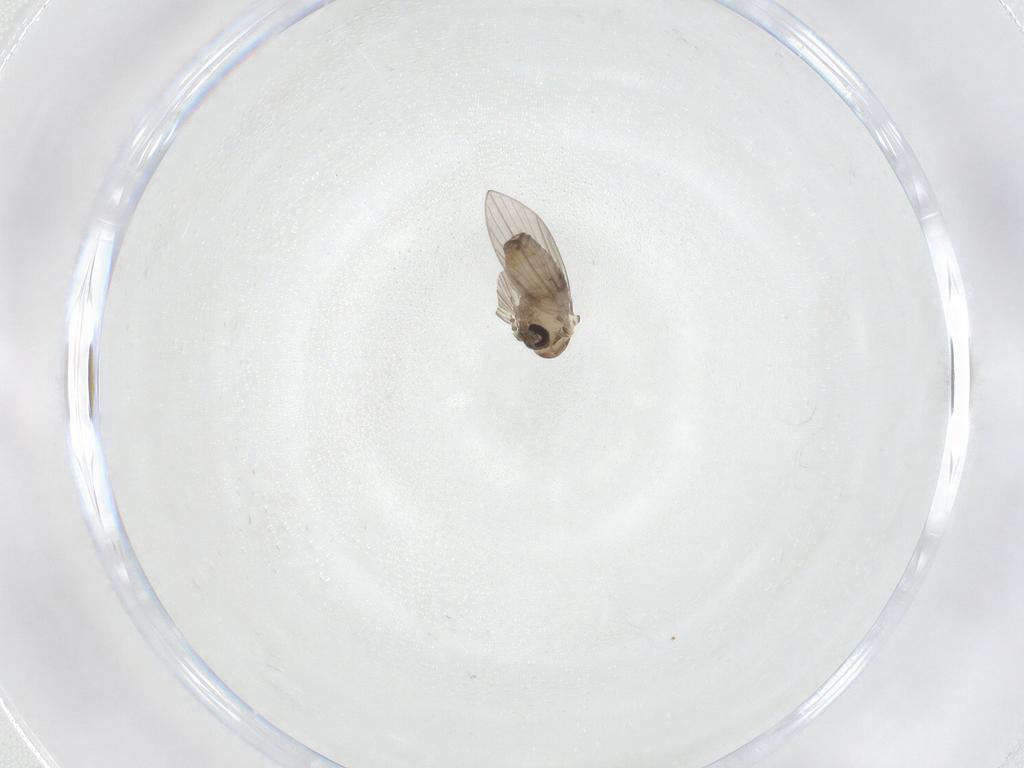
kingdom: Animalia
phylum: Arthropoda
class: Insecta
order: Diptera
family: Psychodidae
